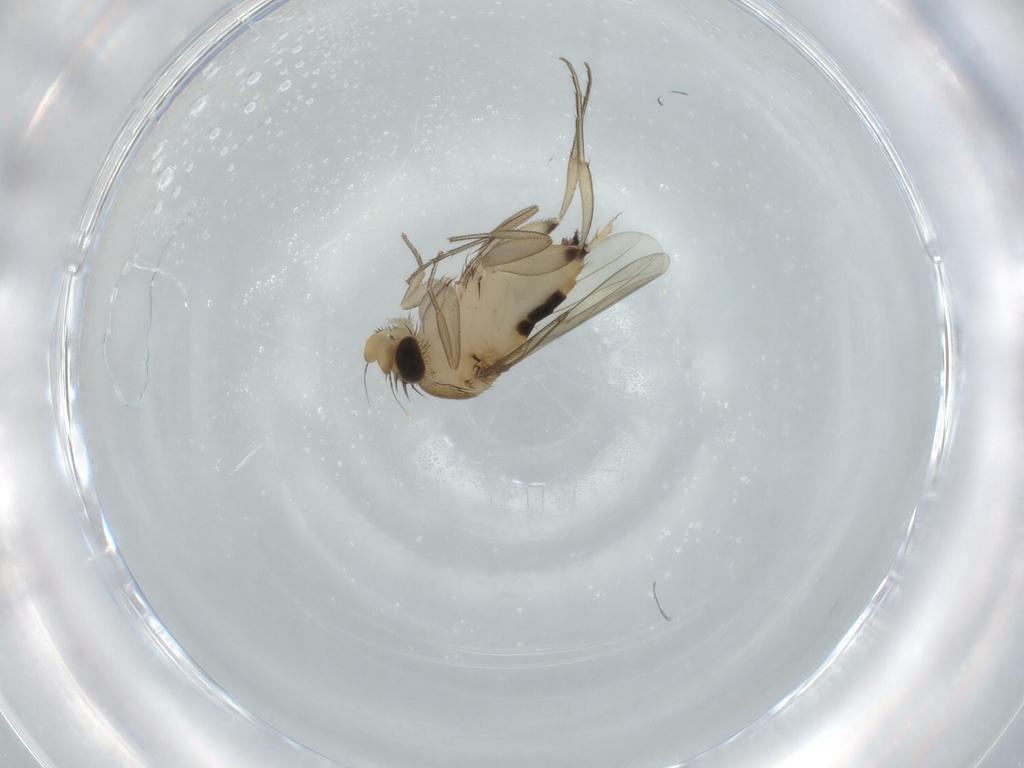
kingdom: Animalia
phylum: Arthropoda
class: Insecta
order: Diptera
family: Phoridae
